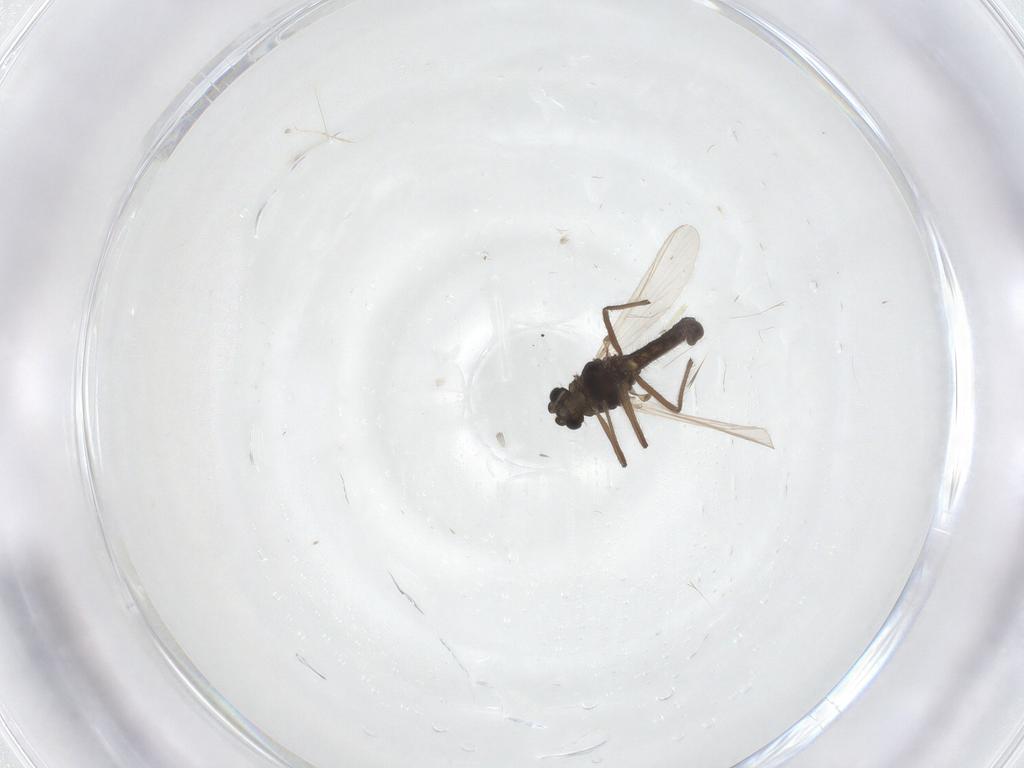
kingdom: Animalia
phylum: Arthropoda
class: Insecta
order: Diptera
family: Chironomidae
